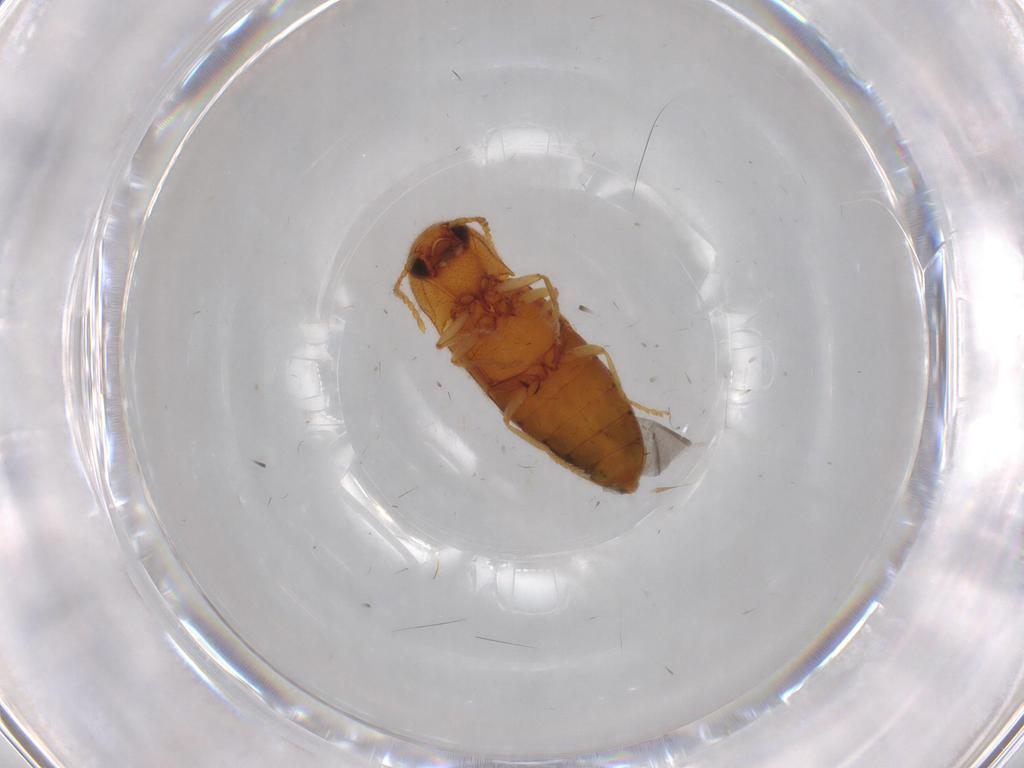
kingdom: Animalia
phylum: Arthropoda
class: Insecta
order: Coleoptera
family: Elateridae
